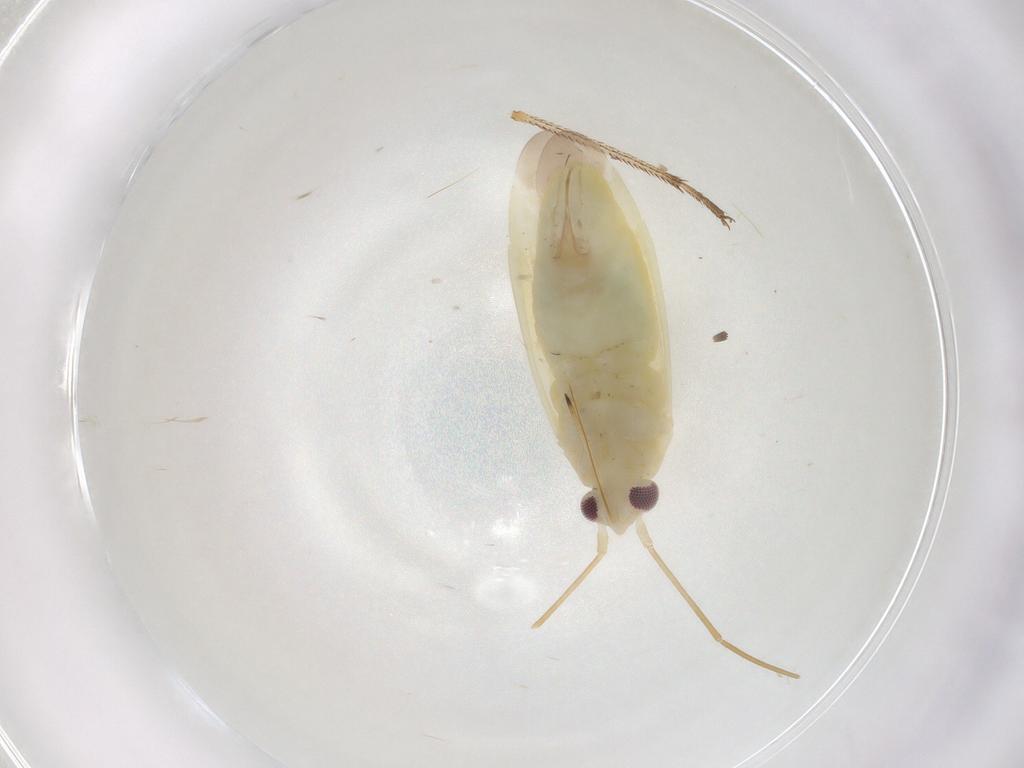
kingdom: Animalia
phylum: Arthropoda
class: Insecta
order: Hemiptera
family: Miridae
